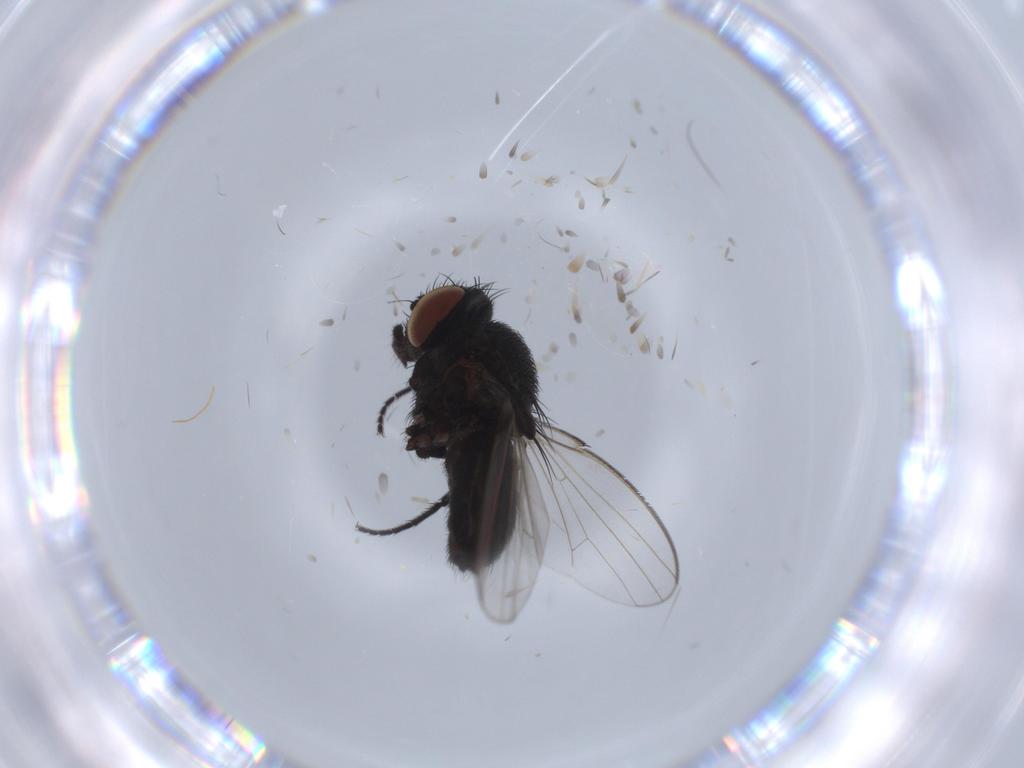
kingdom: Animalia
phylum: Arthropoda
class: Insecta
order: Diptera
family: Milichiidae
